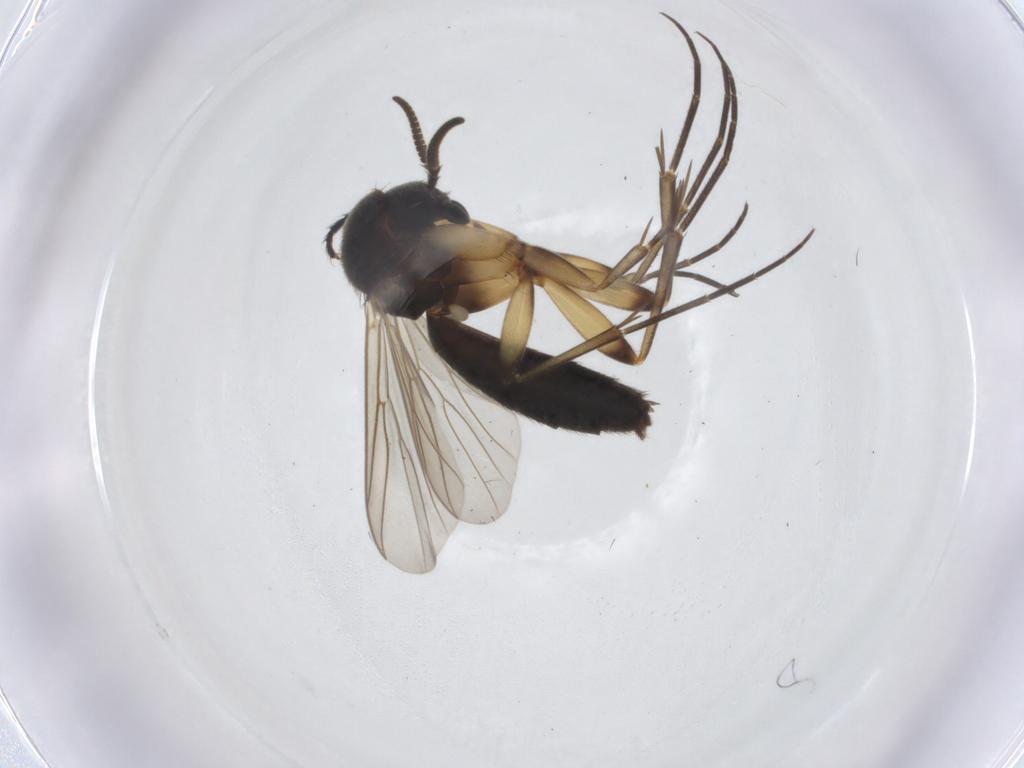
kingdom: Animalia
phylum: Arthropoda
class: Insecta
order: Diptera
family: Mycetophilidae
